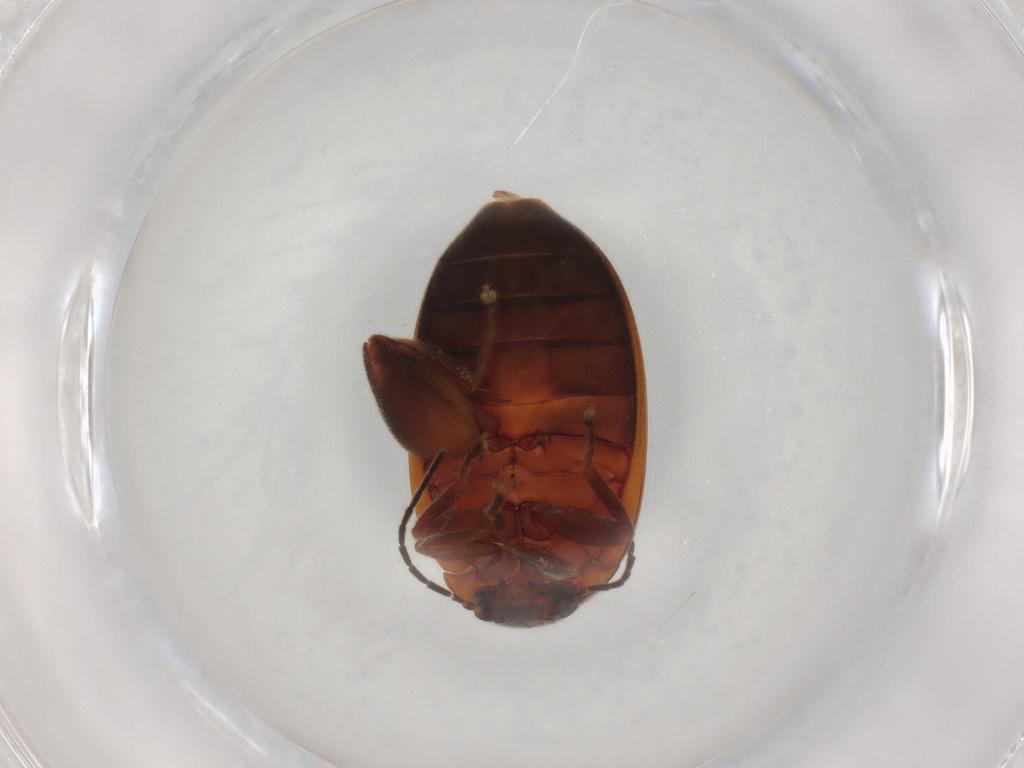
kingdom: Animalia
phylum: Arthropoda
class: Insecta
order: Coleoptera
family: Scirtidae
